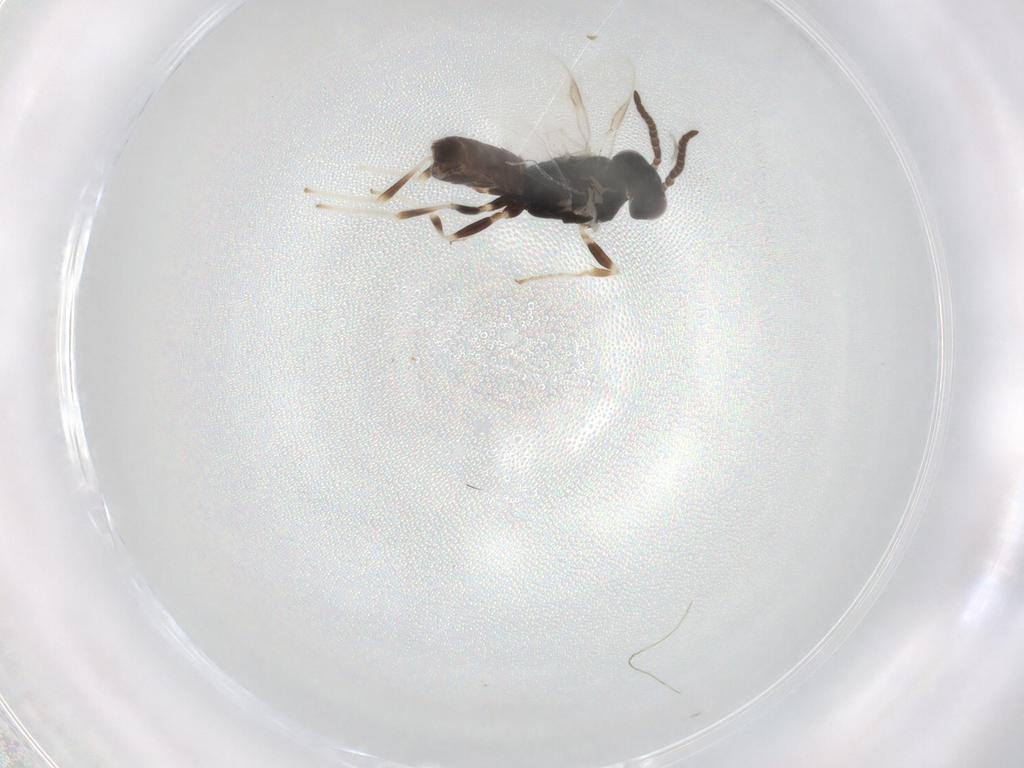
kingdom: Animalia
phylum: Arthropoda
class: Insecta
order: Hymenoptera
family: Dryinidae
